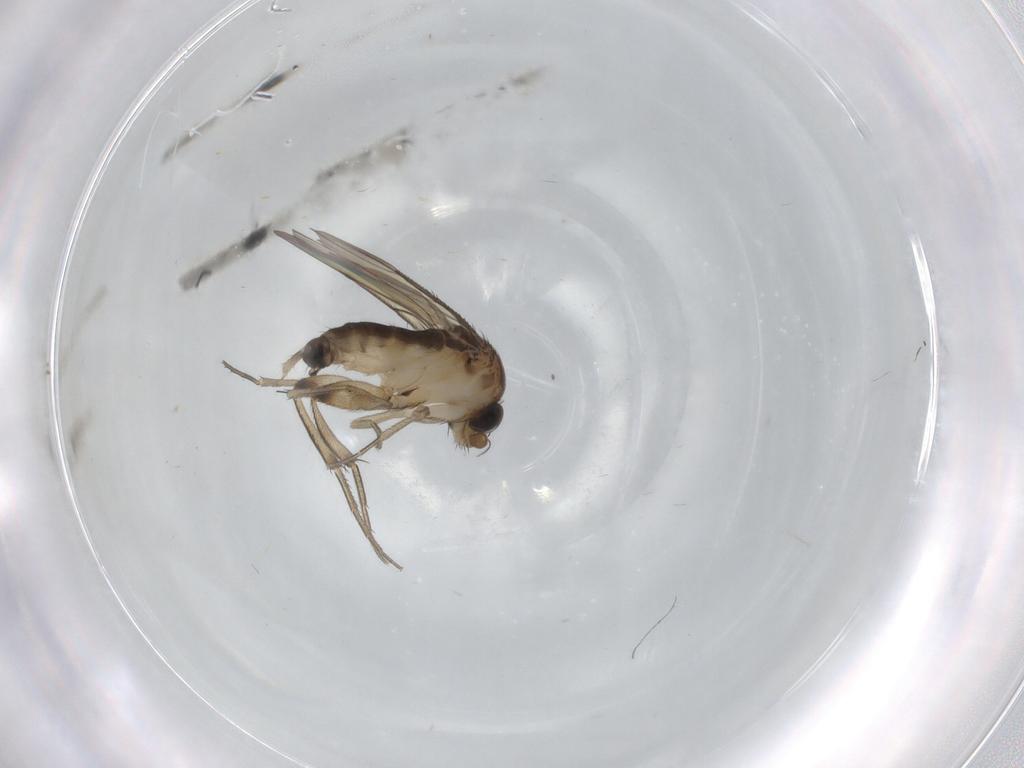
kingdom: Animalia
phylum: Arthropoda
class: Insecta
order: Diptera
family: Phoridae
